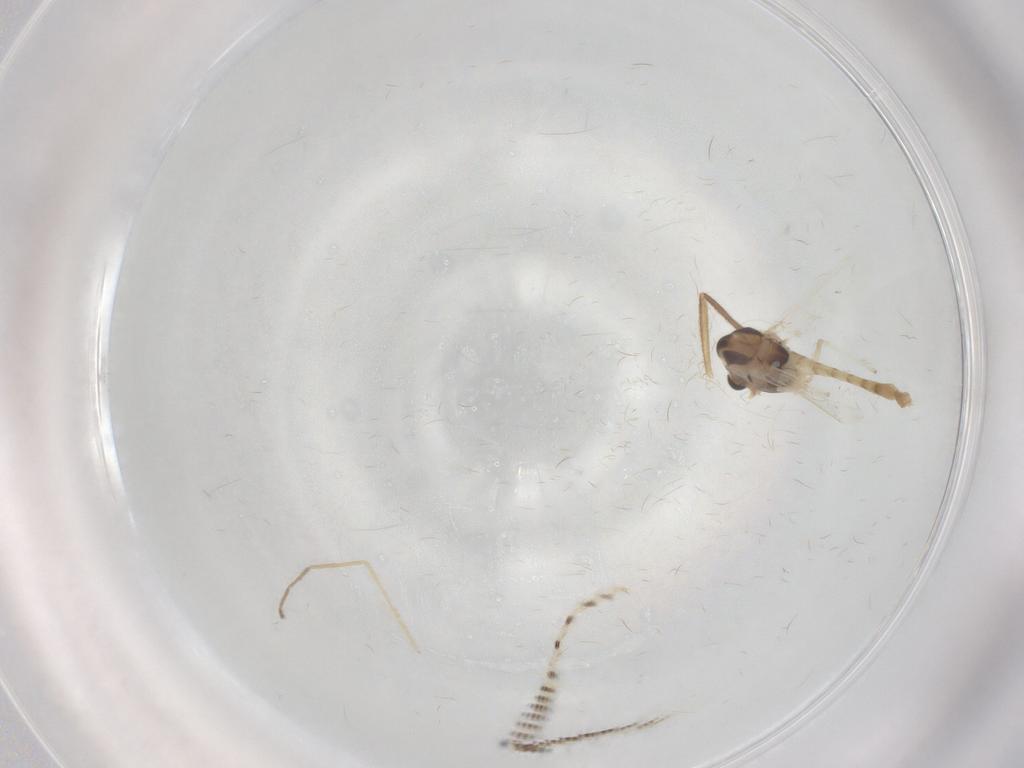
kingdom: Animalia
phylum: Arthropoda
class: Insecta
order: Diptera
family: Chironomidae
